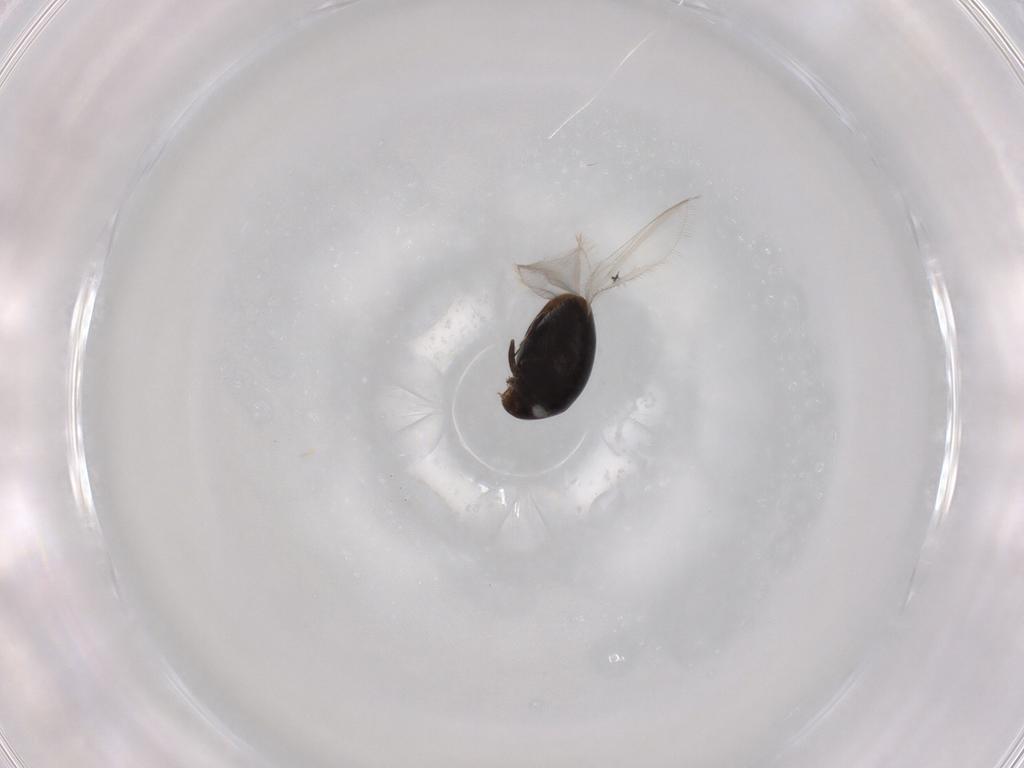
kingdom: Animalia
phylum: Arthropoda
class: Insecta
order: Coleoptera
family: Corylophidae
